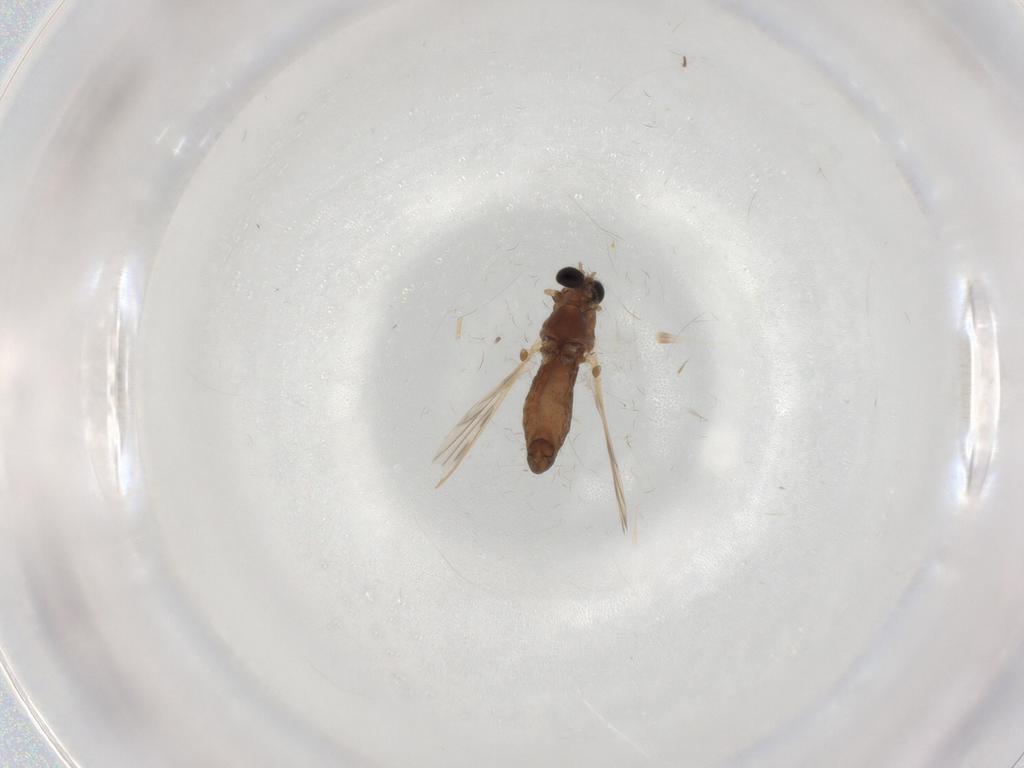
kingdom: Animalia
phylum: Arthropoda
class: Insecta
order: Diptera
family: Chironomidae
